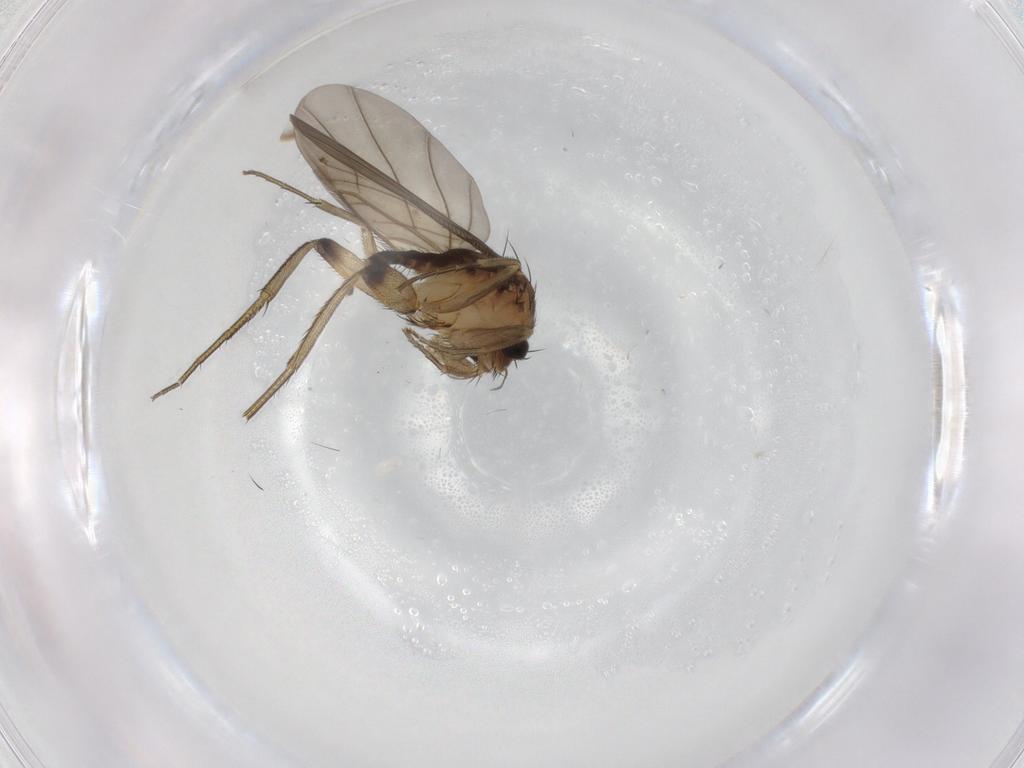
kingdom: Animalia
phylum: Arthropoda
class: Insecta
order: Diptera
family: Phoridae
